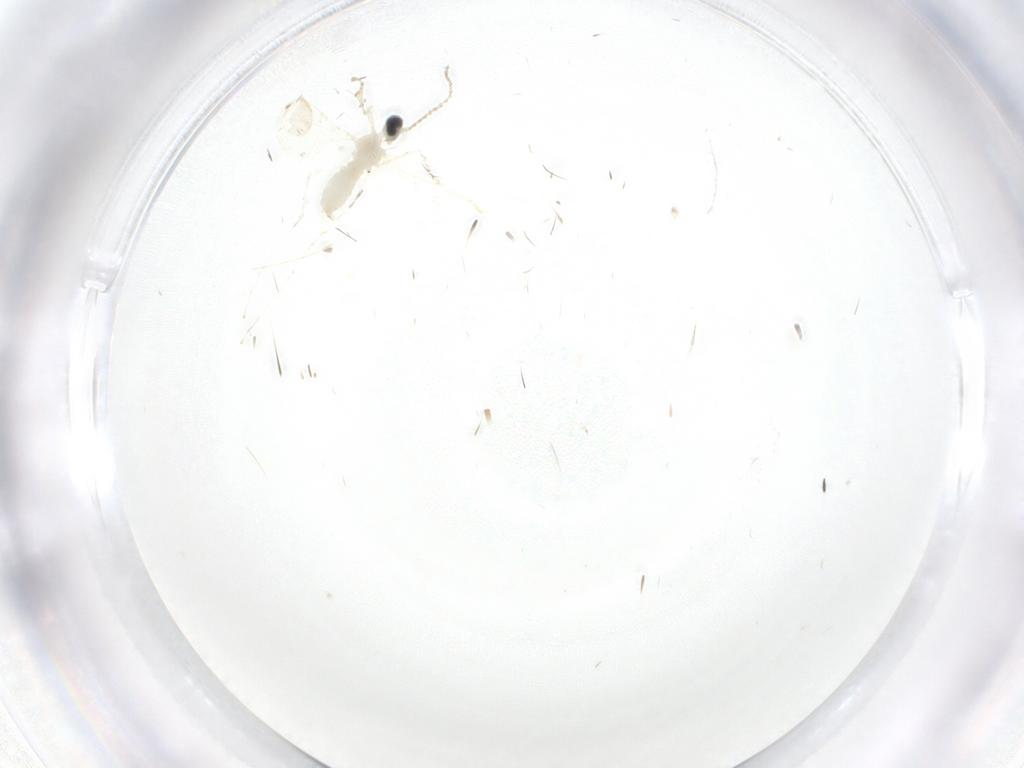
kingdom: Animalia
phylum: Arthropoda
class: Insecta
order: Diptera
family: Cecidomyiidae
